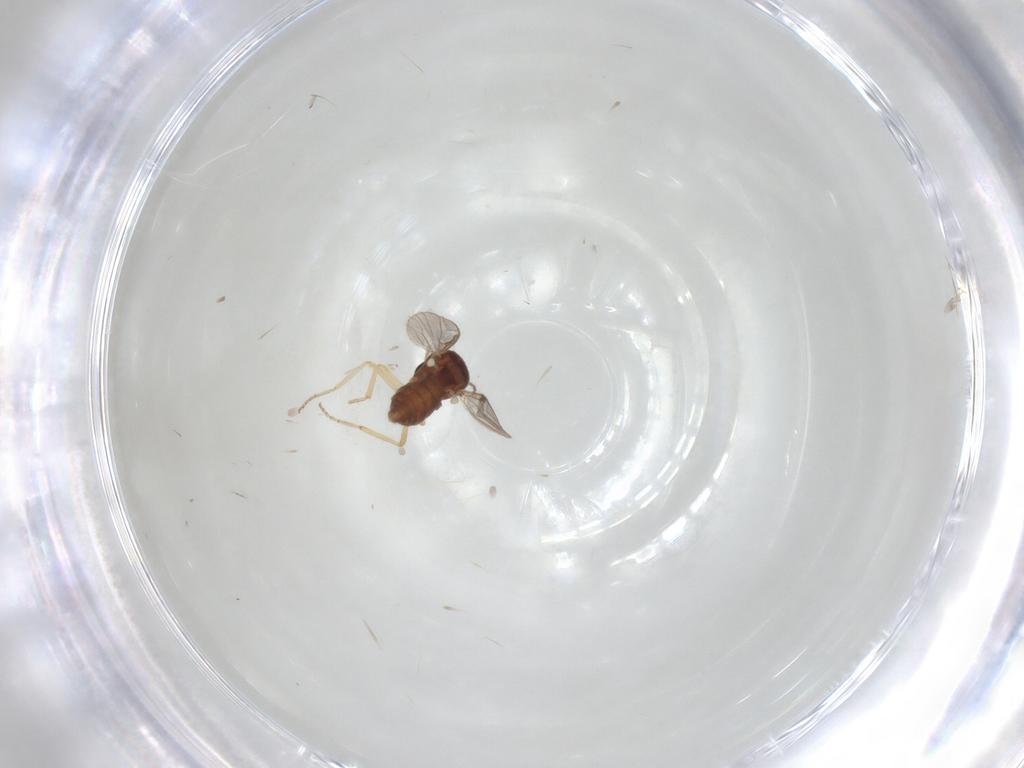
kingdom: Animalia
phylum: Arthropoda
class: Insecta
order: Diptera
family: Ceratopogonidae
